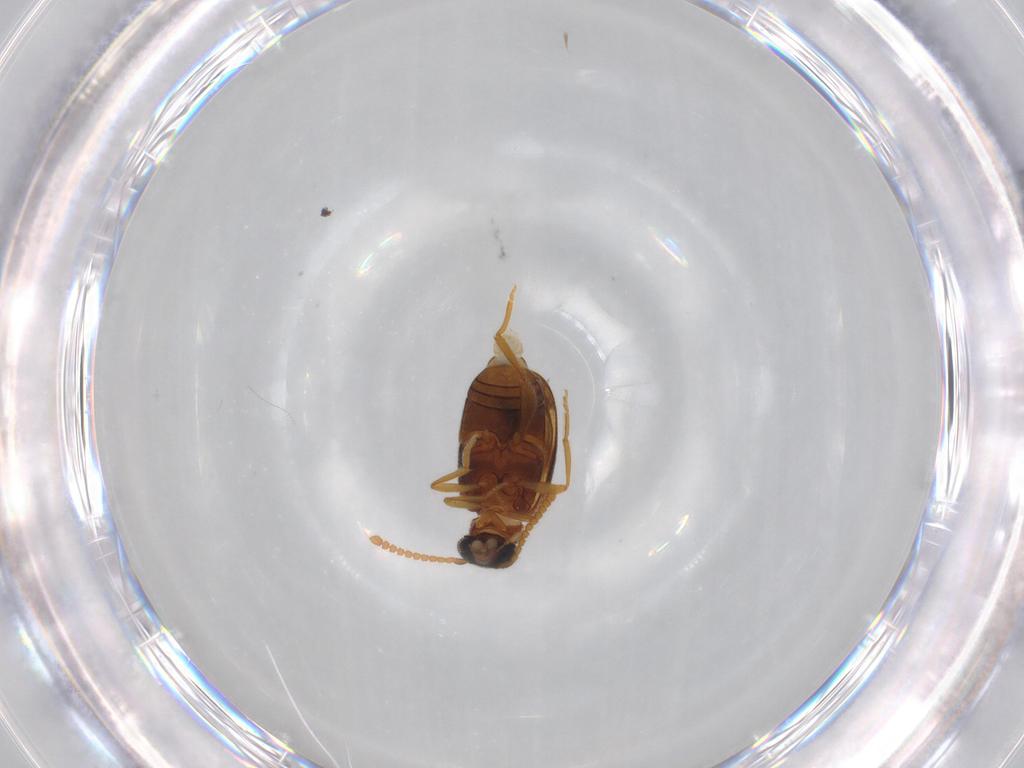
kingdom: Animalia
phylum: Arthropoda
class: Insecta
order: Coleoptera
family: Aderidae
